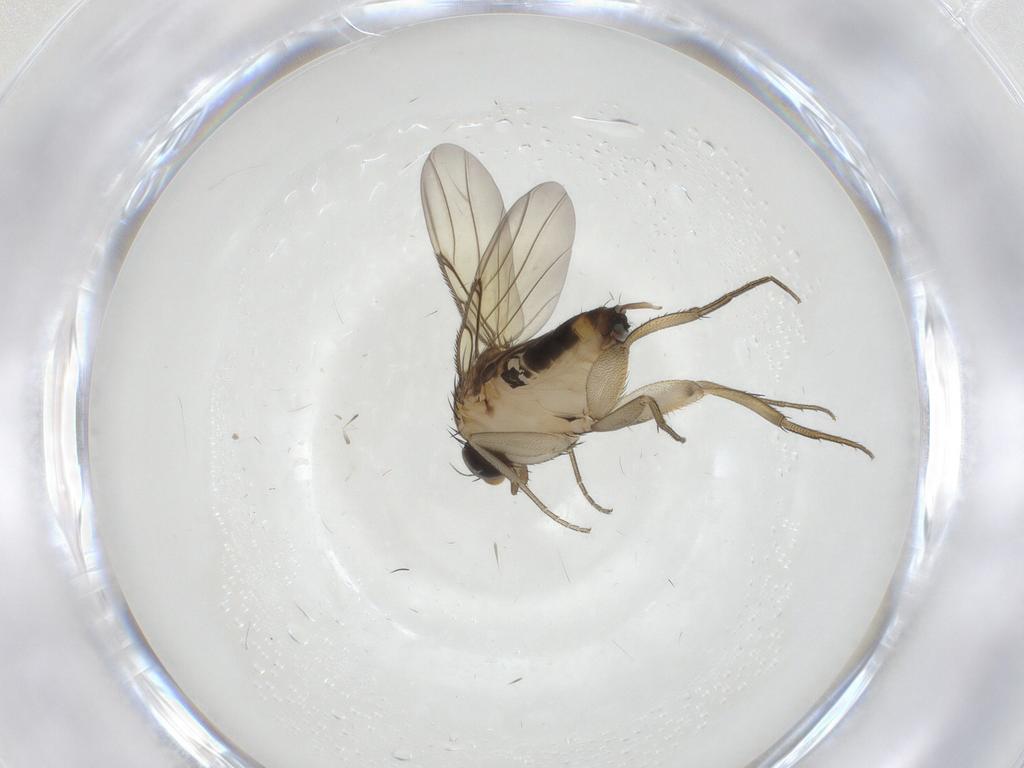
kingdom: Animalia
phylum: Arthropoda
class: Insecta
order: Diptera
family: Phoridae
